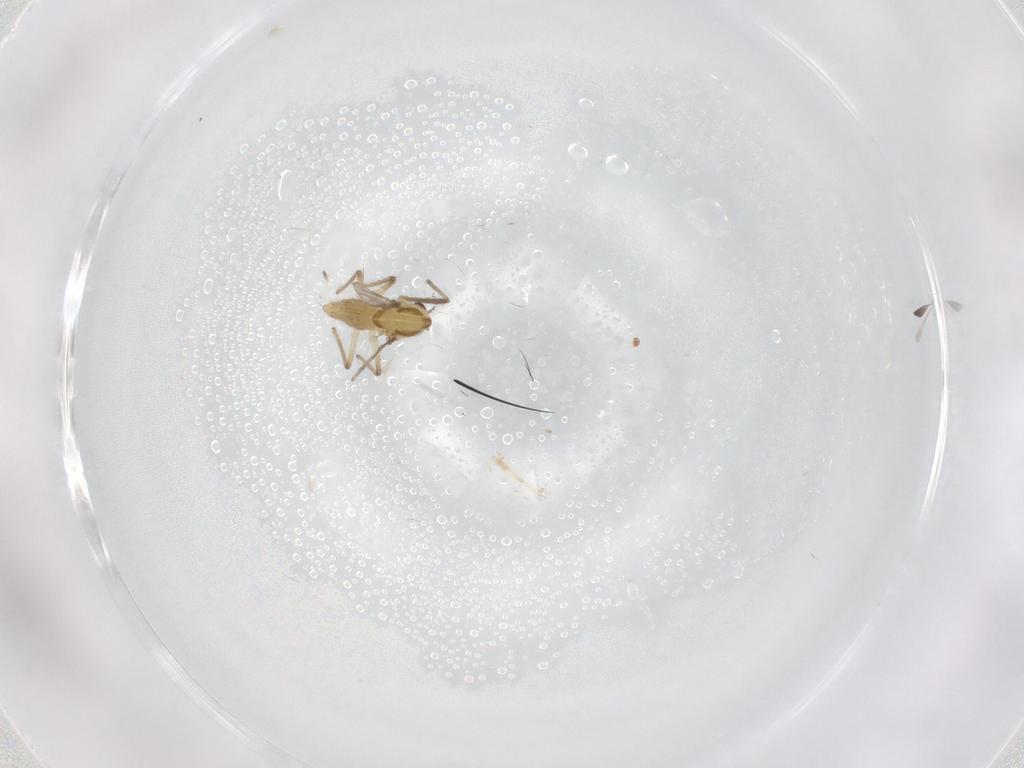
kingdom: Animalia
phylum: Arthropoda
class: Insecta
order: Diptera
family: Chironomidae
